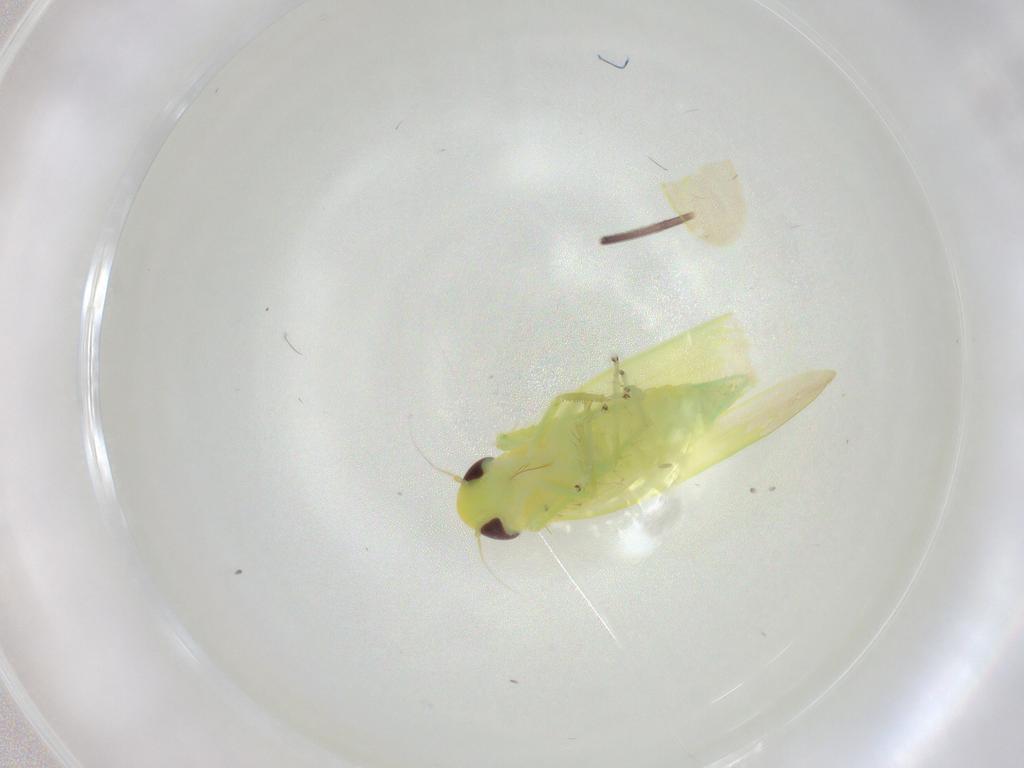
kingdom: Animalia
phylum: Arthropoda
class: Insecta
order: Hemiptera
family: Cicadellidae
